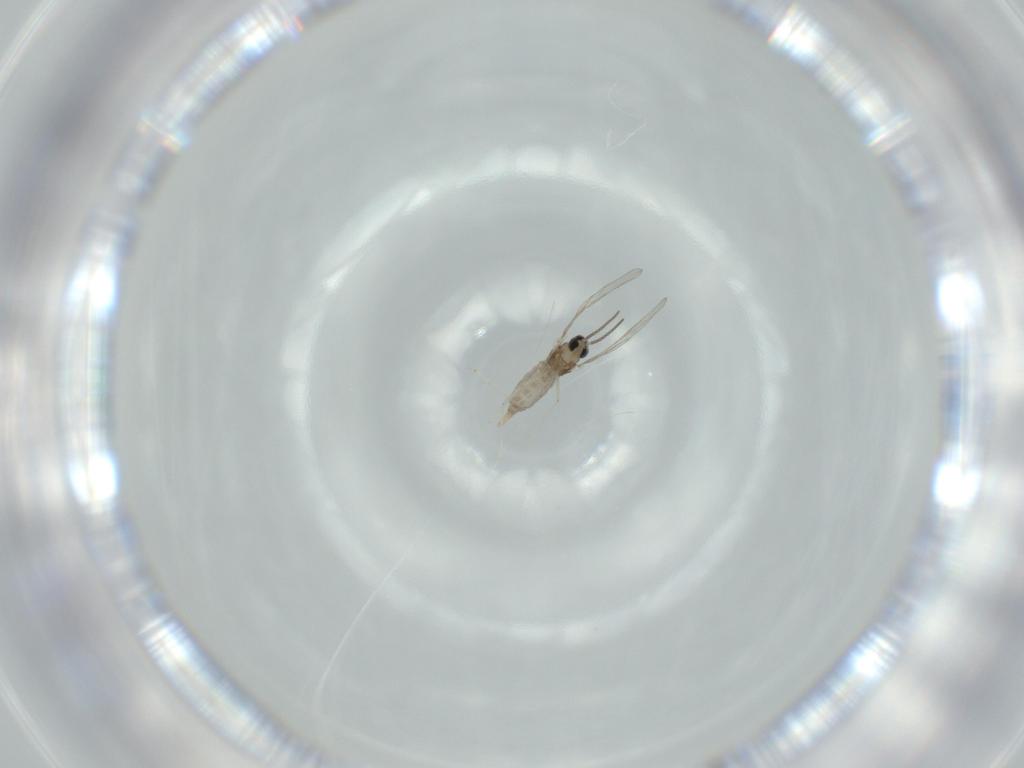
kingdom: Animalia
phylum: Arthropoda
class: Insecta
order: Diptera
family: Cecidomyiidae
